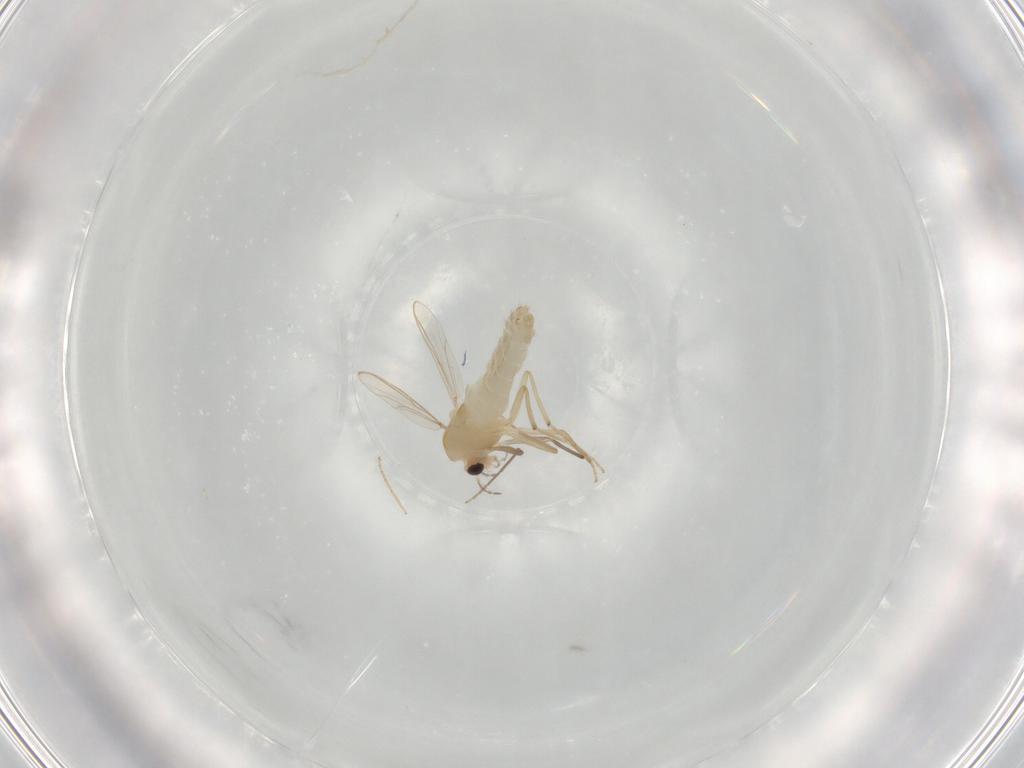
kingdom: Animalia
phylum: Arthropoda
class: Insecta
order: Diptera
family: Chironomidae
